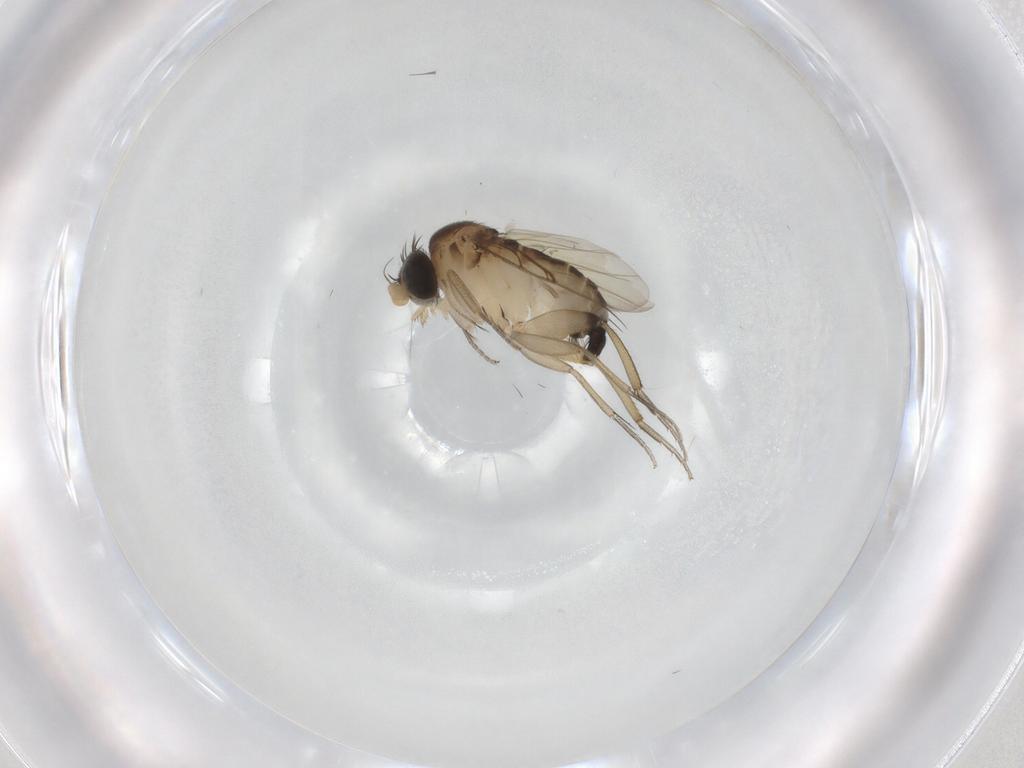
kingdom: Animalia
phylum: Arthropoda
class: Insecta
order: Diptera
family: Phoridae
